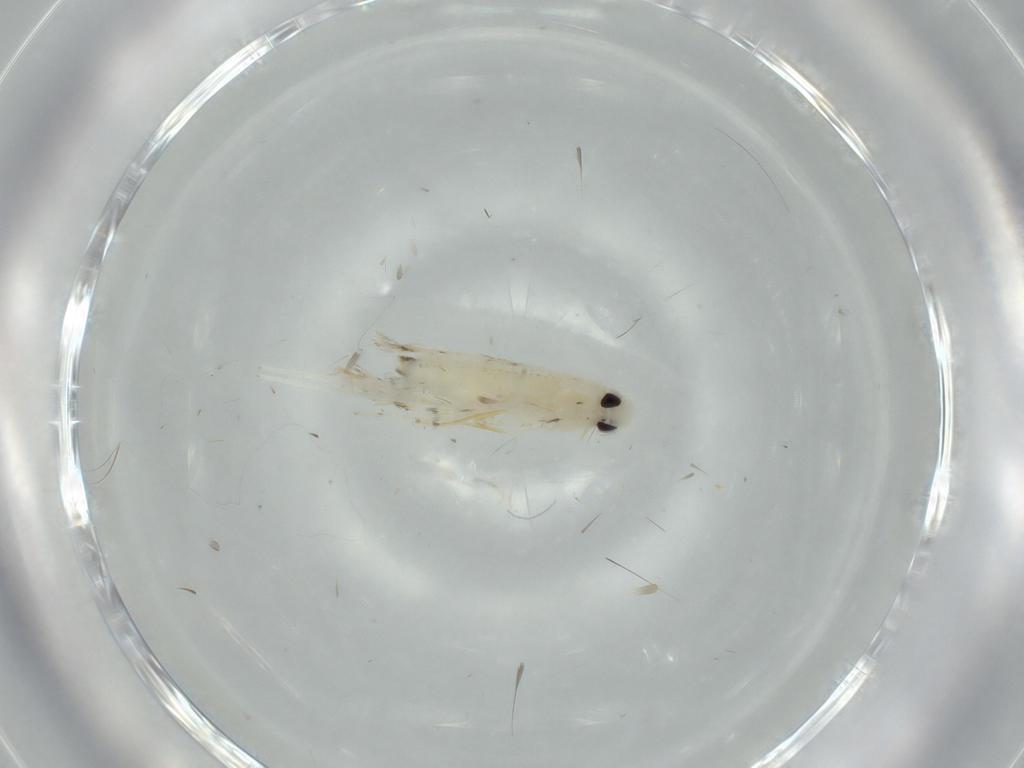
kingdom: Animalia
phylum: Arthropoda
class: Insecta
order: Lepidoptera
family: Gracillariidae
